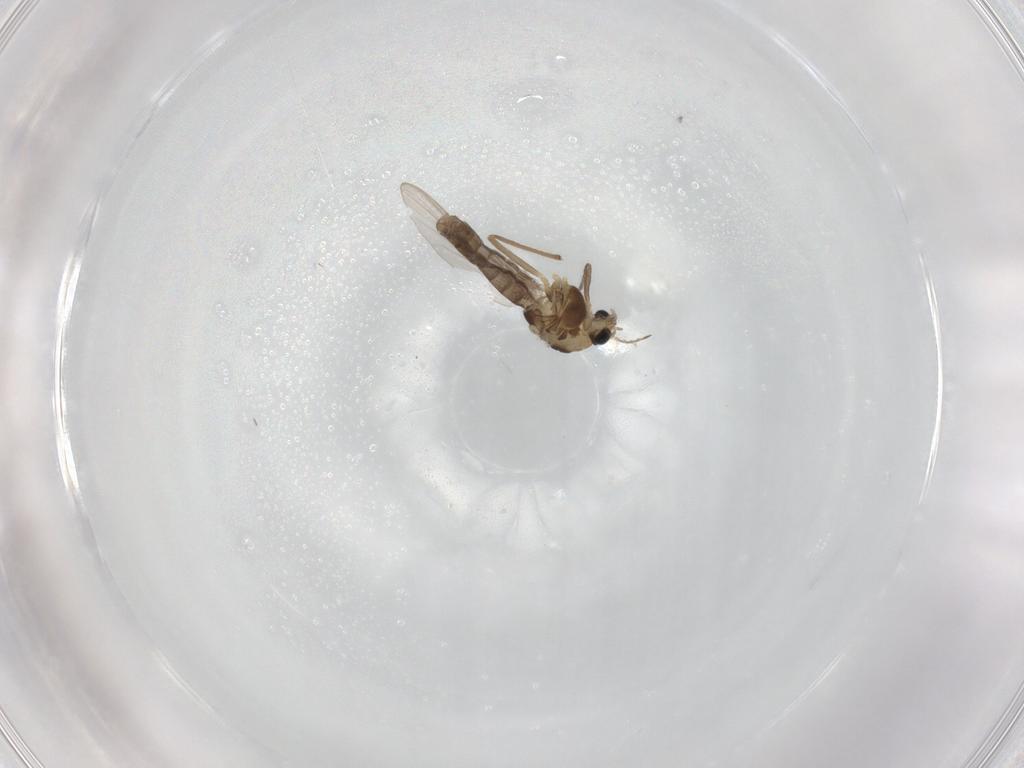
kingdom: Animalia
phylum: Arthropoda
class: Insecta
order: Diptera
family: Chironomidae
